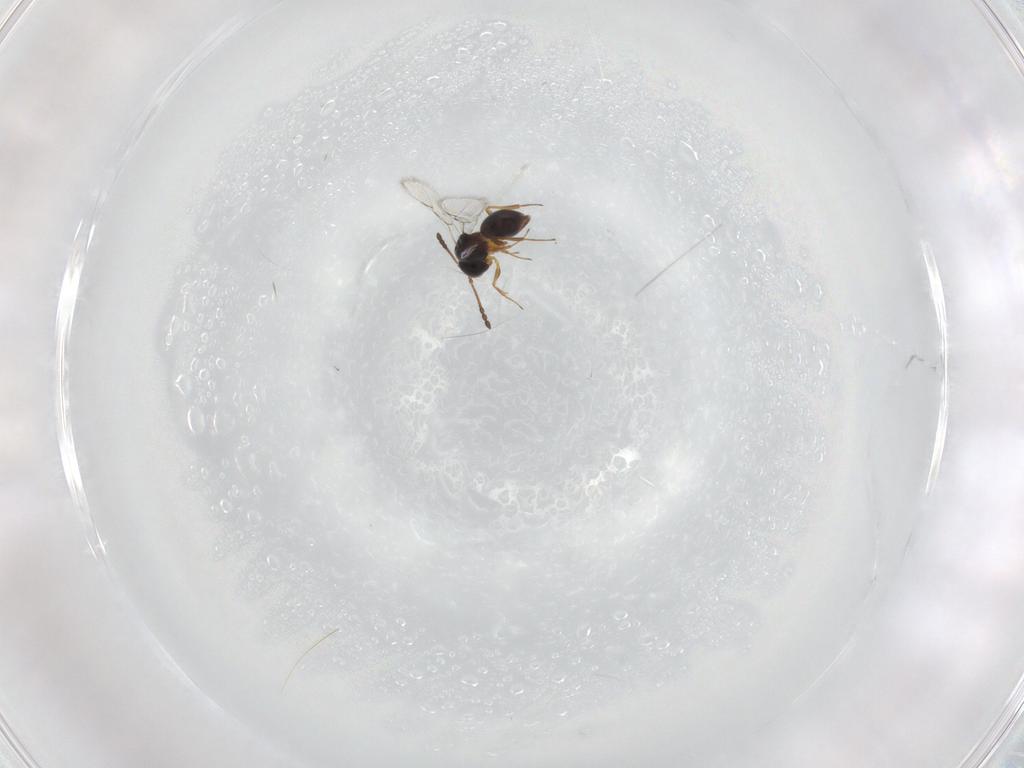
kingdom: Animalia
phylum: Arthropoda
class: Insecta
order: Hymenoptera
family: Figitidae
